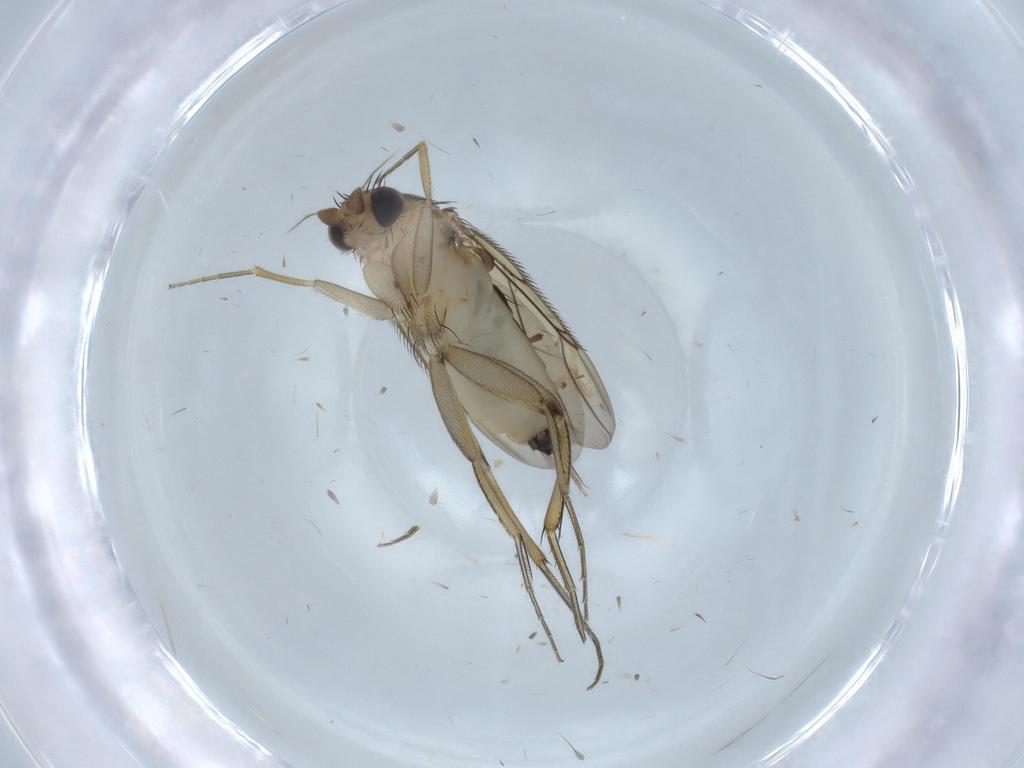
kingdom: Animalia
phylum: Arthropoda
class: Insecta
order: Diptera
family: Phoridae
